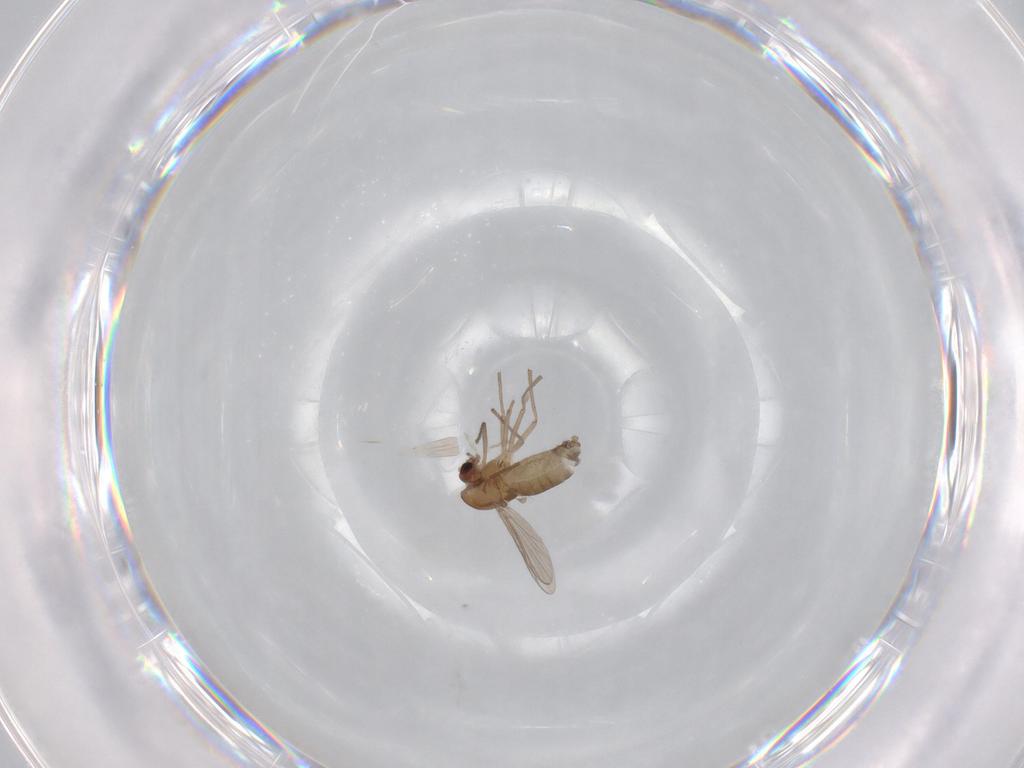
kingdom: Animalia
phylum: Arthropoda
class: Insecta
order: Diptera
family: Chironomidae
